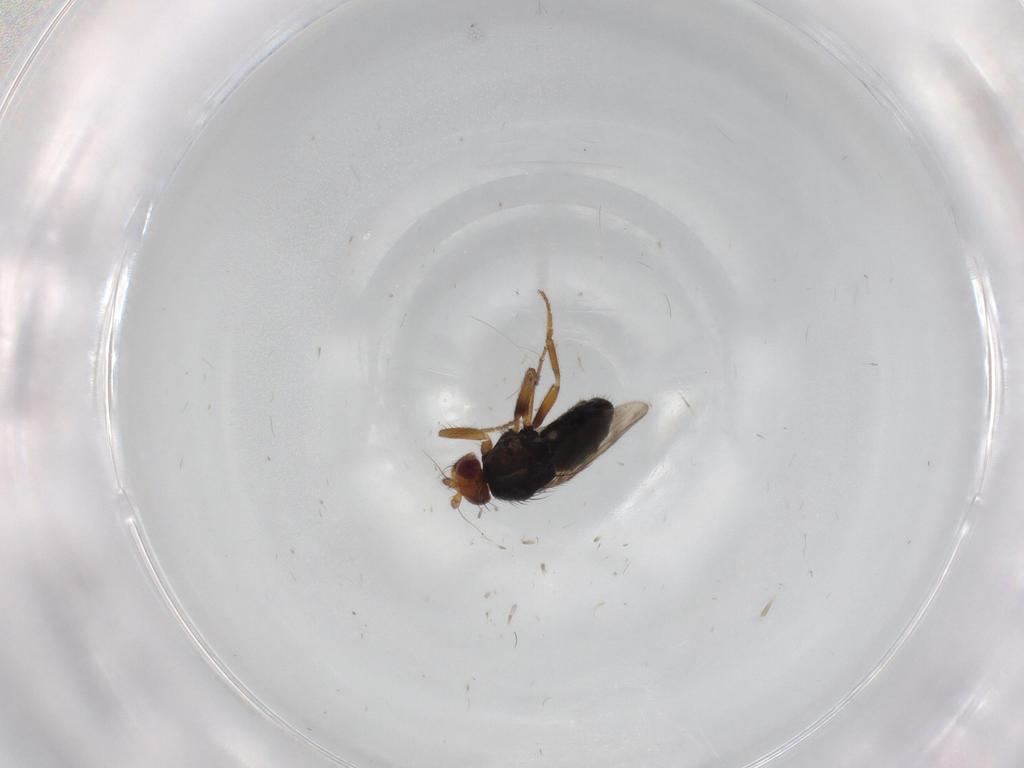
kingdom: Animalia
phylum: Arthropoda
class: Insecta
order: Diptera
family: Sphaeroceridae
